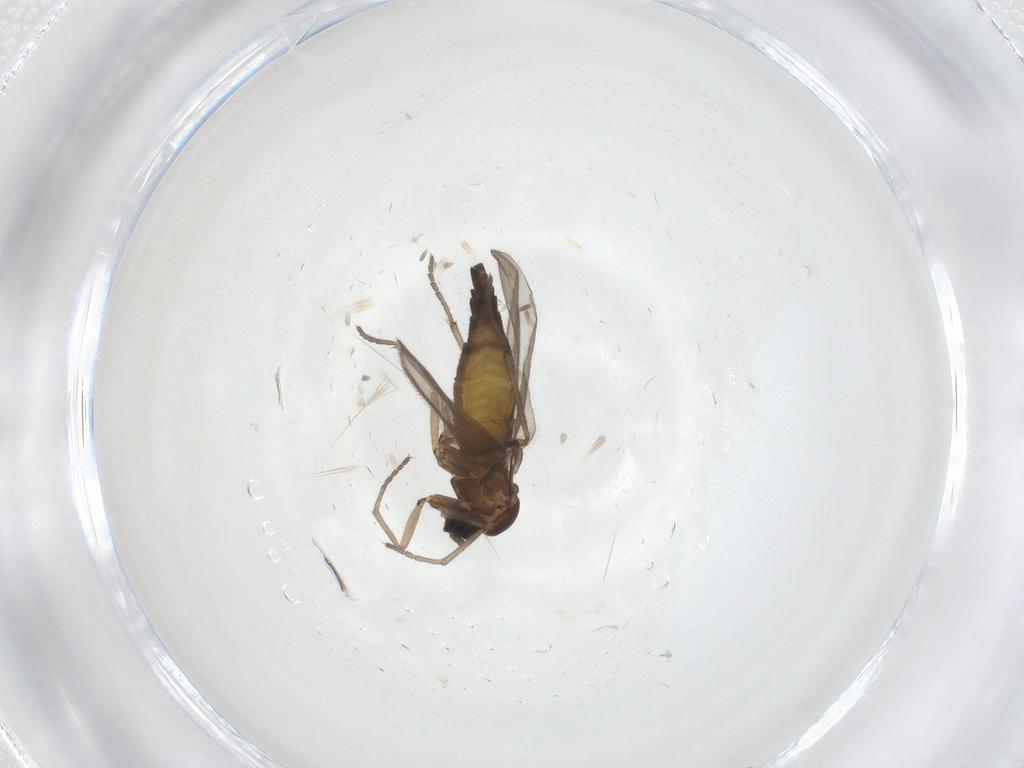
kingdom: Animalia
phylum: Arthropoda
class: Insecta
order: Diptera
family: Sciaridae
